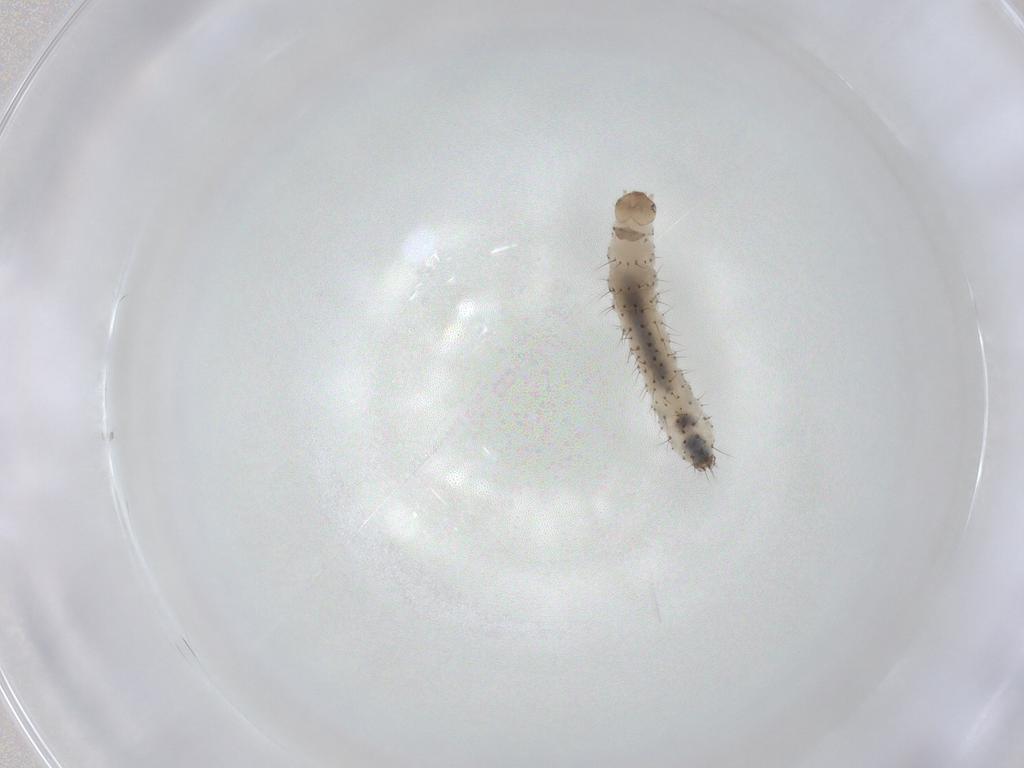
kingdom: Animalia
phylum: Arthropoda
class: Insecta
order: Lepidoptera
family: Erebidae
